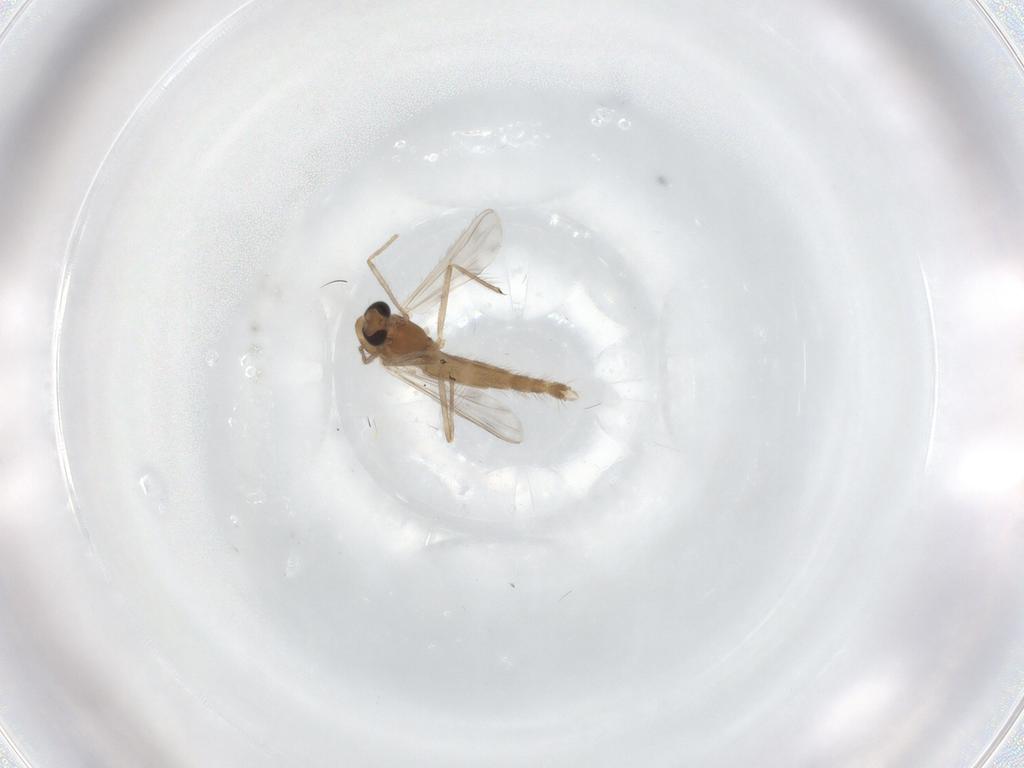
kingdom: Animalia
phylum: Arthropoda
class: Insecta
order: Diptera
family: Chironomidae
